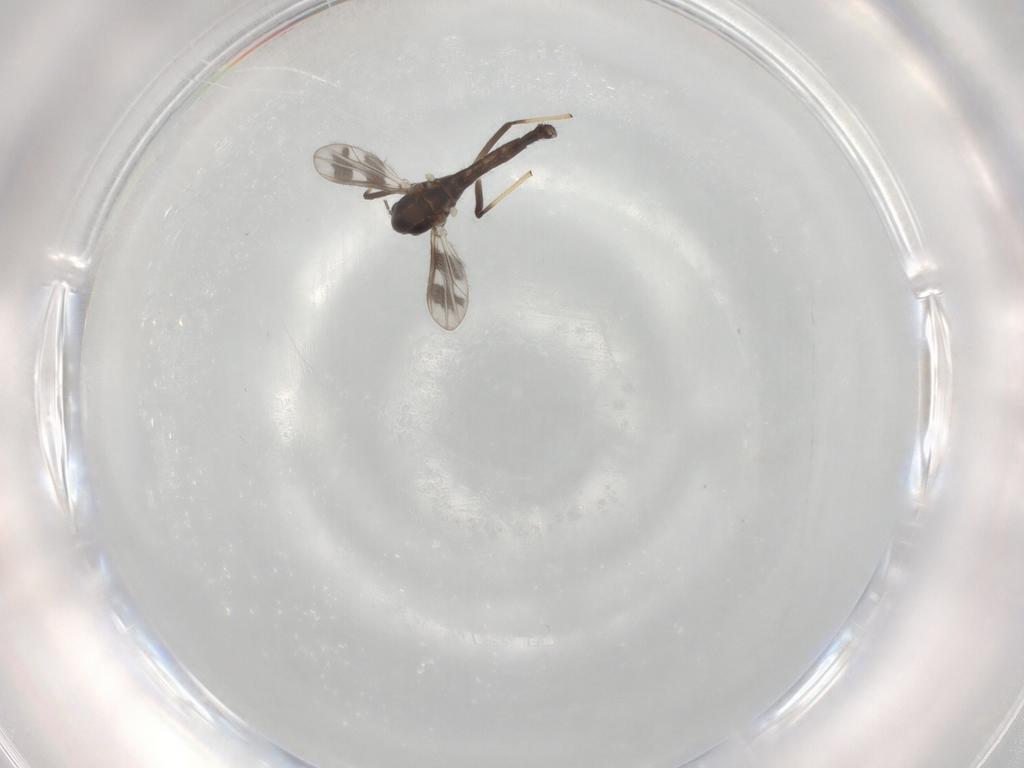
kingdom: Animalia
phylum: Arthropoda
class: Insecta
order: Diptera
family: Chironomidae
